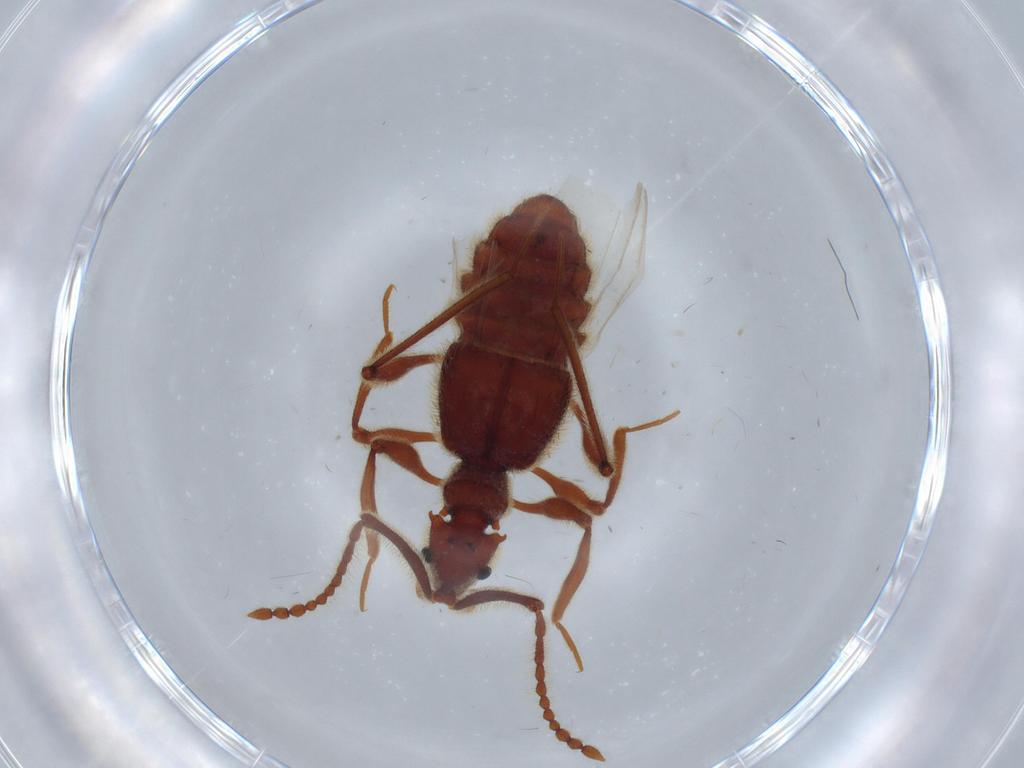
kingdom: Animalia
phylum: Arthropoda
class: Insecta
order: Coleoptera
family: Staphylinidae
